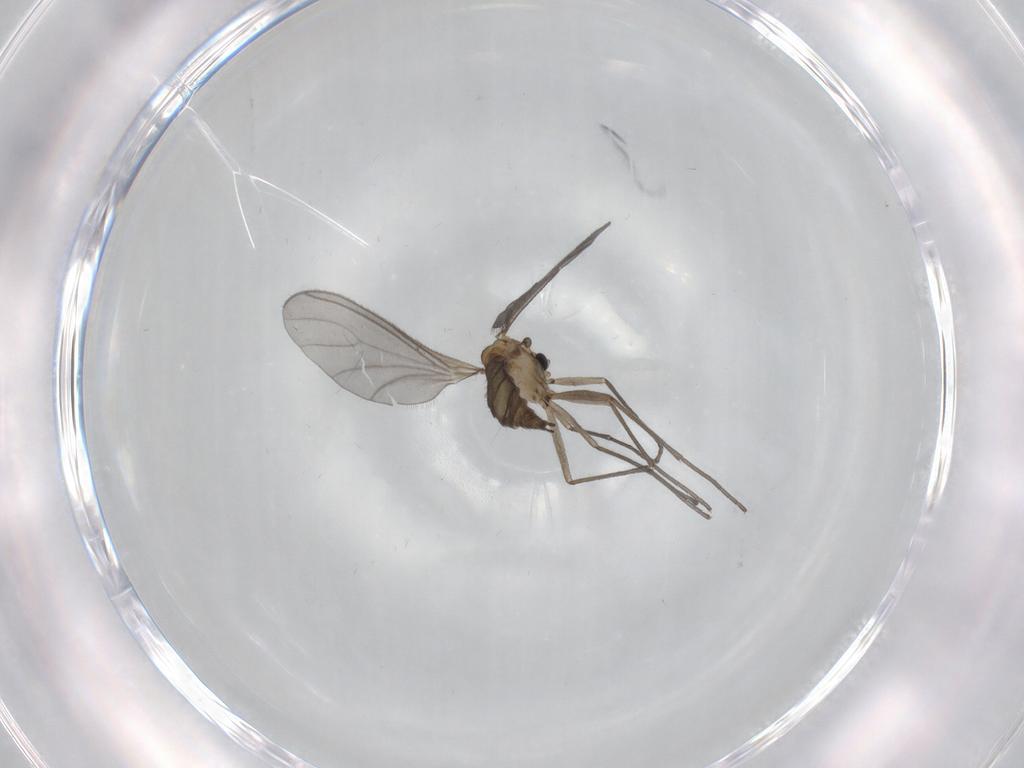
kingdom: Animalia
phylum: Arthropoda
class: Insecta
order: Diptera
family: Sciaridae
